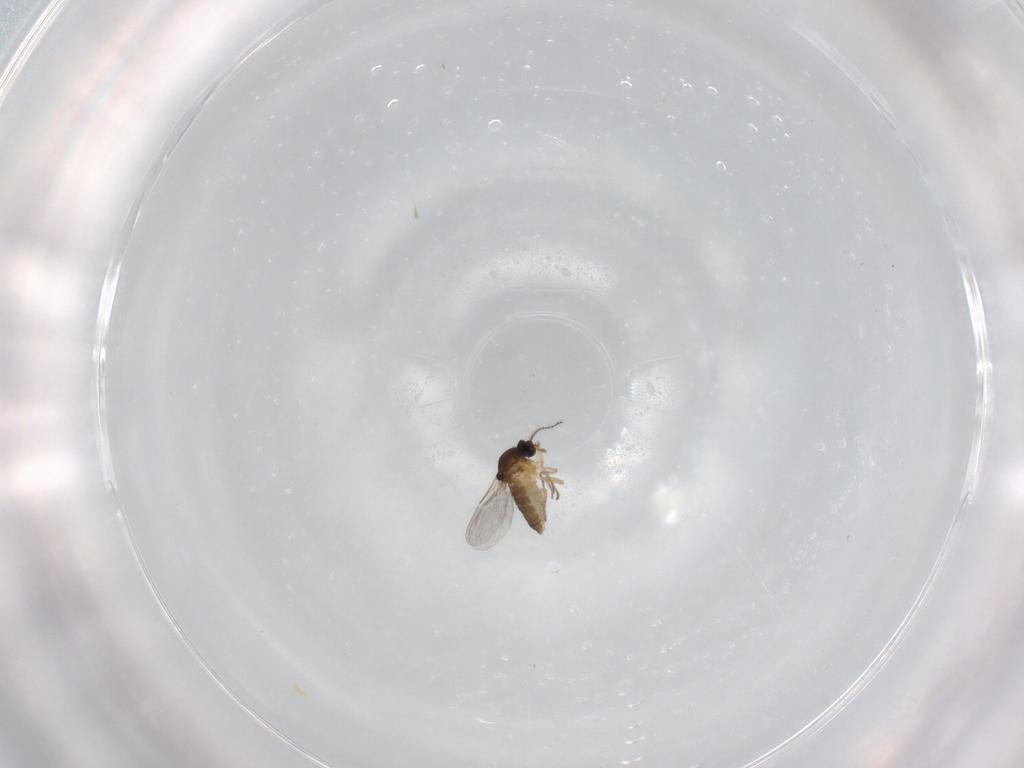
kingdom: Animalia
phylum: Arthropoda
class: Insecta
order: Diptera
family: Ceratopogonidae
